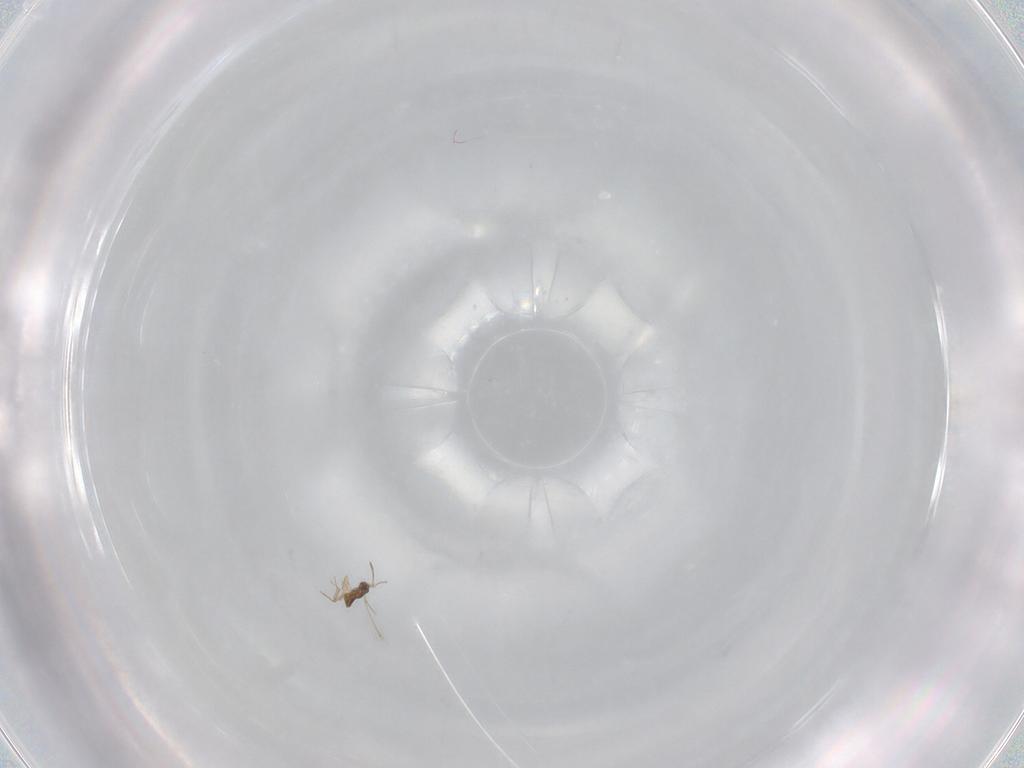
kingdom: Animalia
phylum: Arthropoda
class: Insecta
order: Hymenoptera
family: Mymaridae
